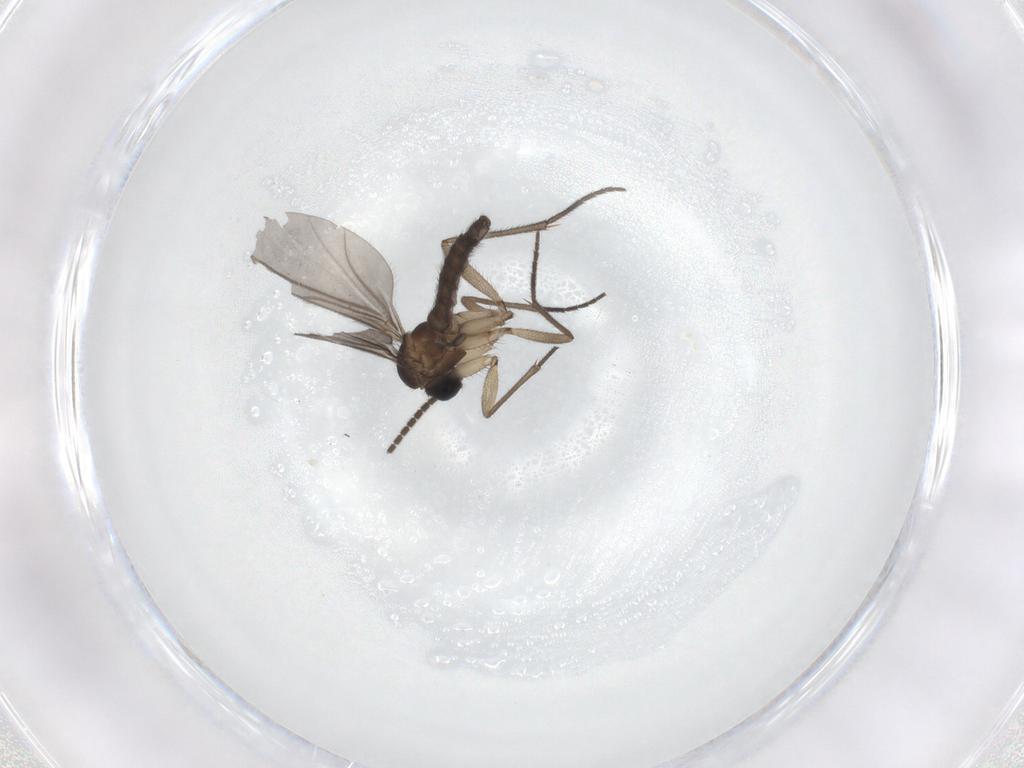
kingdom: Animalia
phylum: Arthropoda
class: Insecta
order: Diptera
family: Sciaridae
